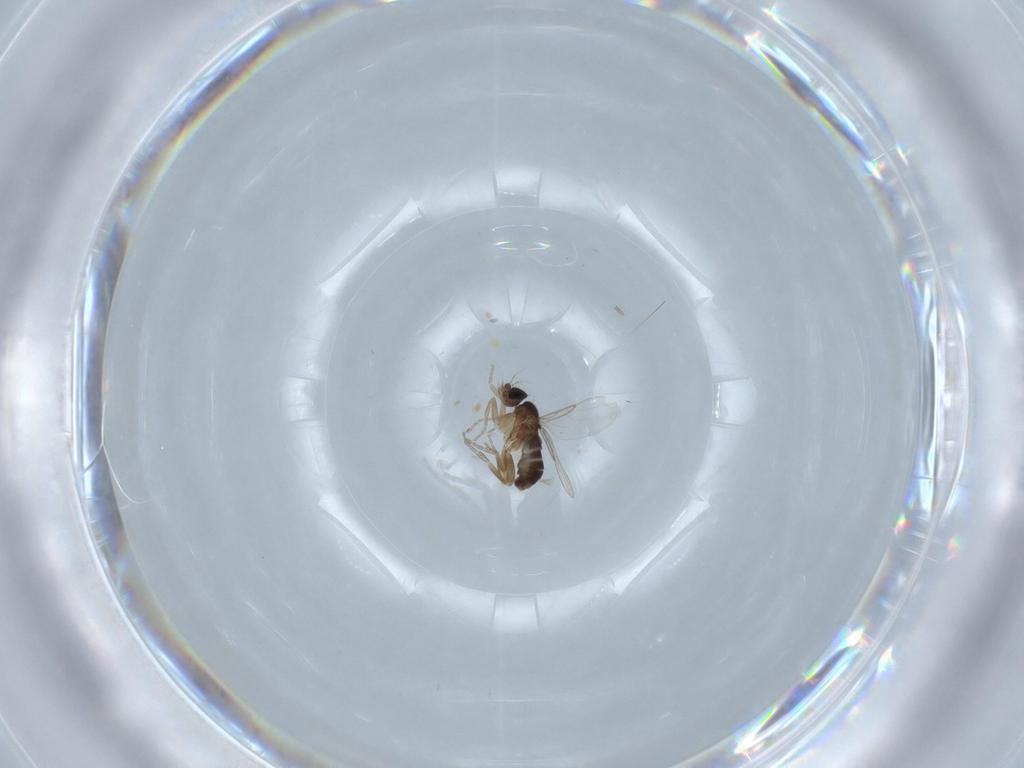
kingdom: Animalia
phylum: Arthropoda
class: Insecta
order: Diptera
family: Phoridae
